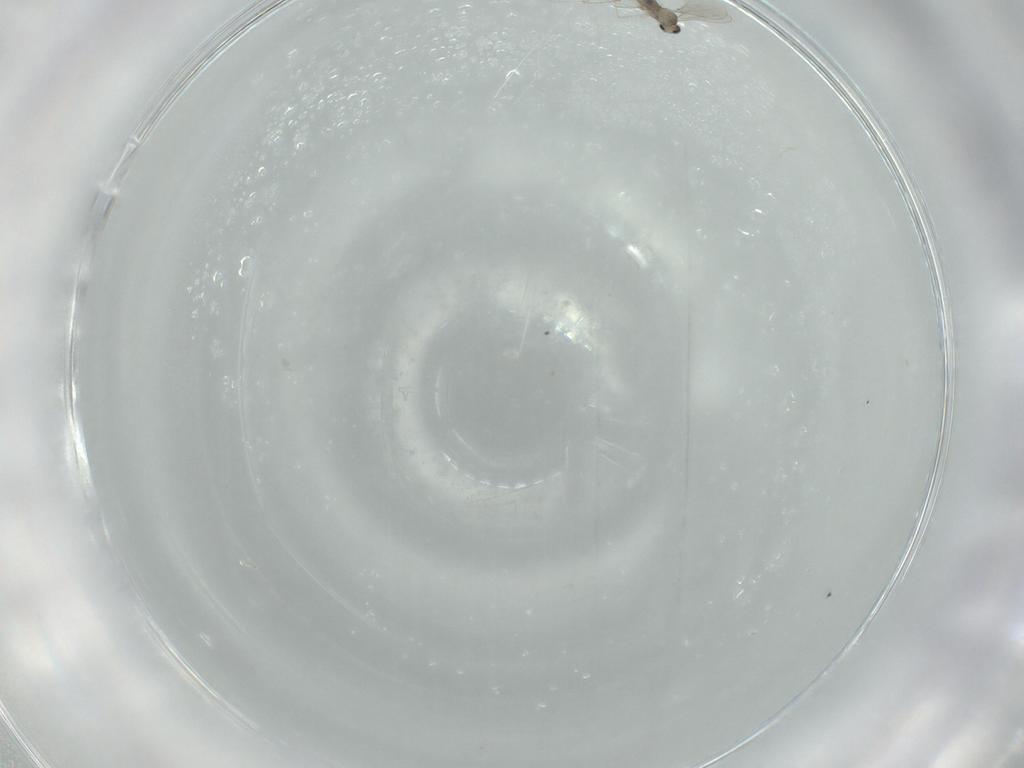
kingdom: Animalia
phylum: Arthropoda
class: Insecta
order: Diptera
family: Cecidomyiidae
